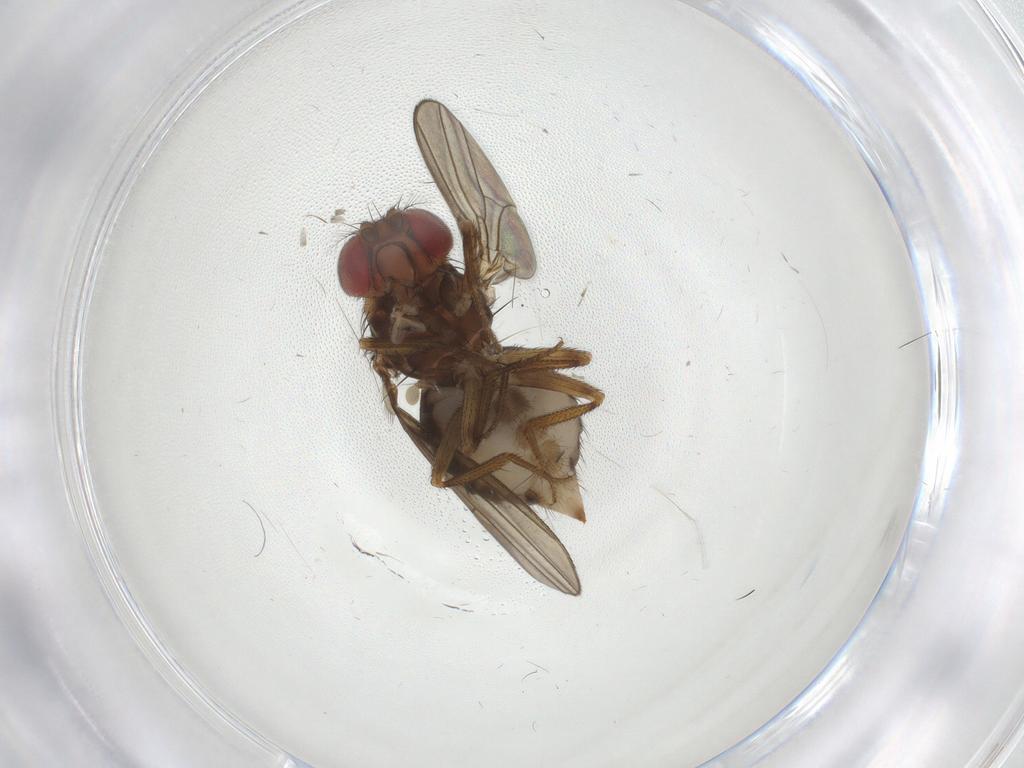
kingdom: Animalia
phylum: Arthropoda
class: Insecta
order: Diptera
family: Drosophilidae
